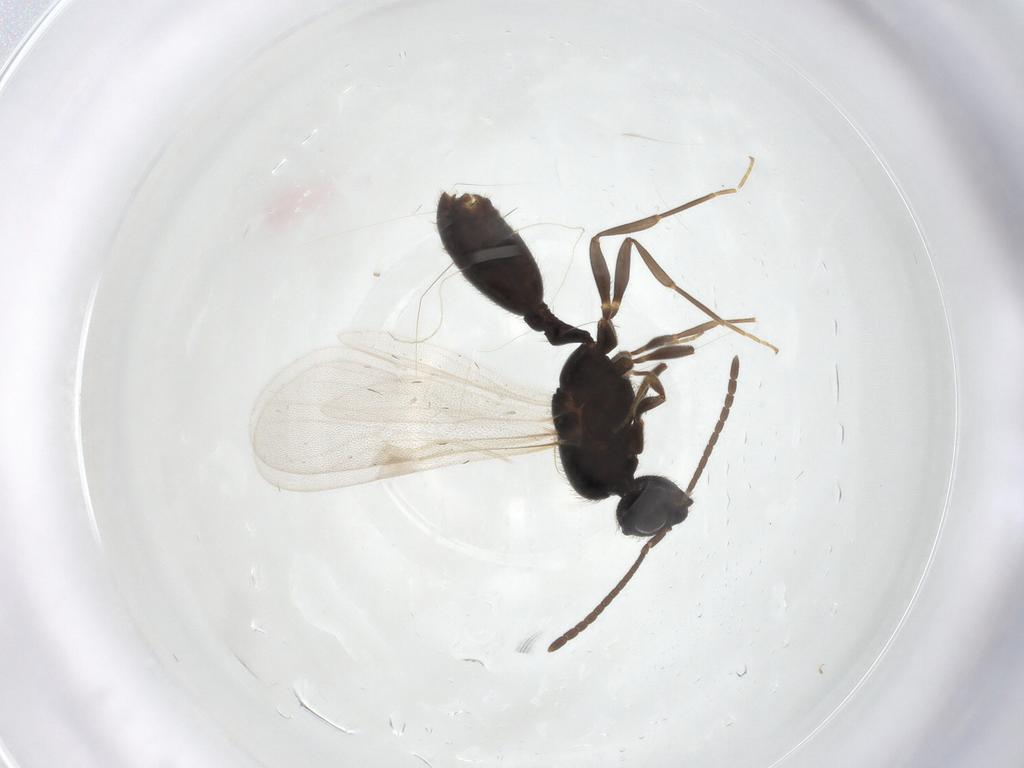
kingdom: Animalia
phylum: Arthropoda
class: Insecta
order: Hymenoptera
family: Formicidae
